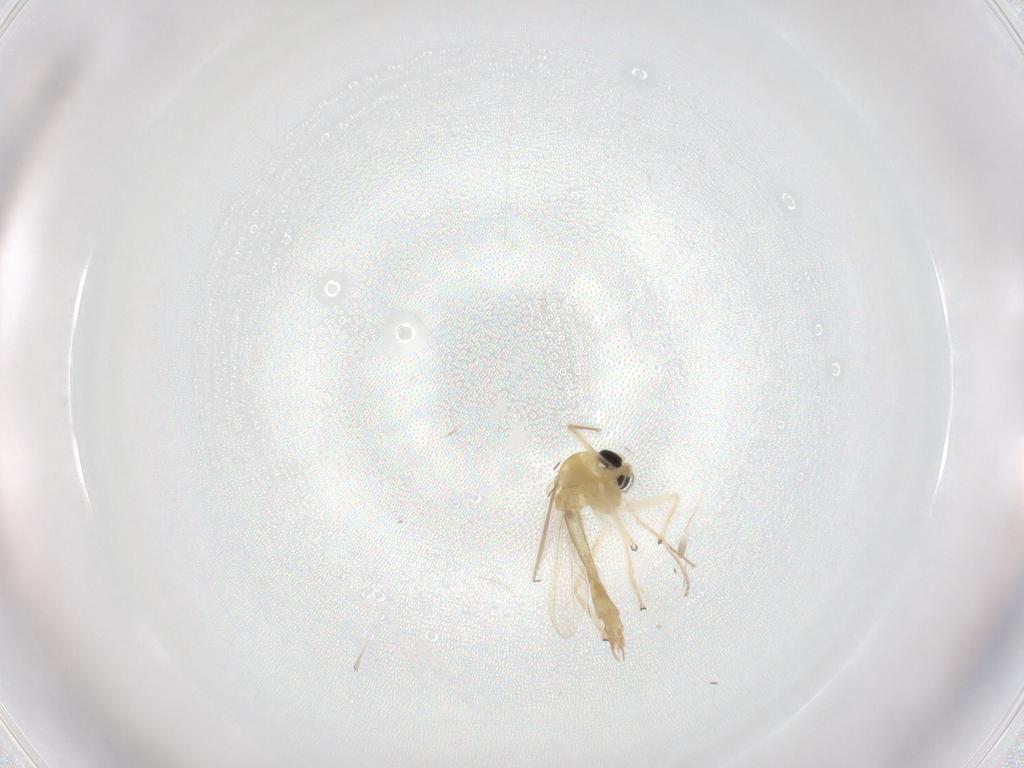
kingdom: Animalia
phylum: Arthropoda
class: Insecta
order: Diptera
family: Chironomidae
